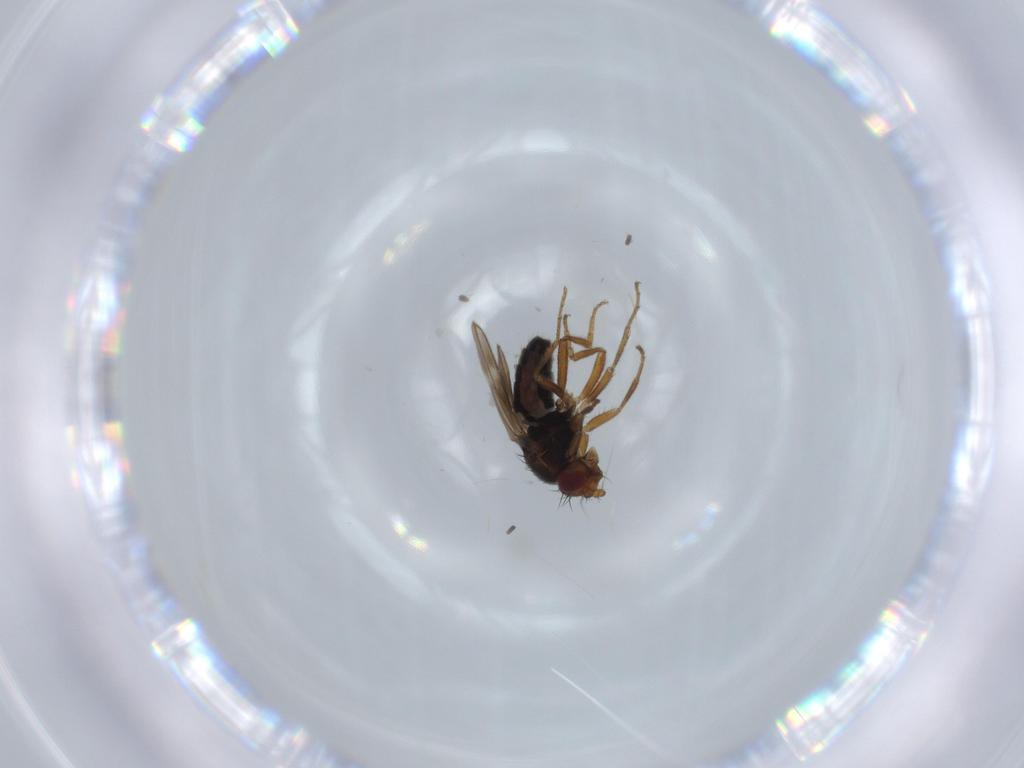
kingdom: Animalia
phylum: Arthropoda
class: Insecta
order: Diptera
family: Sphaeroceridae
